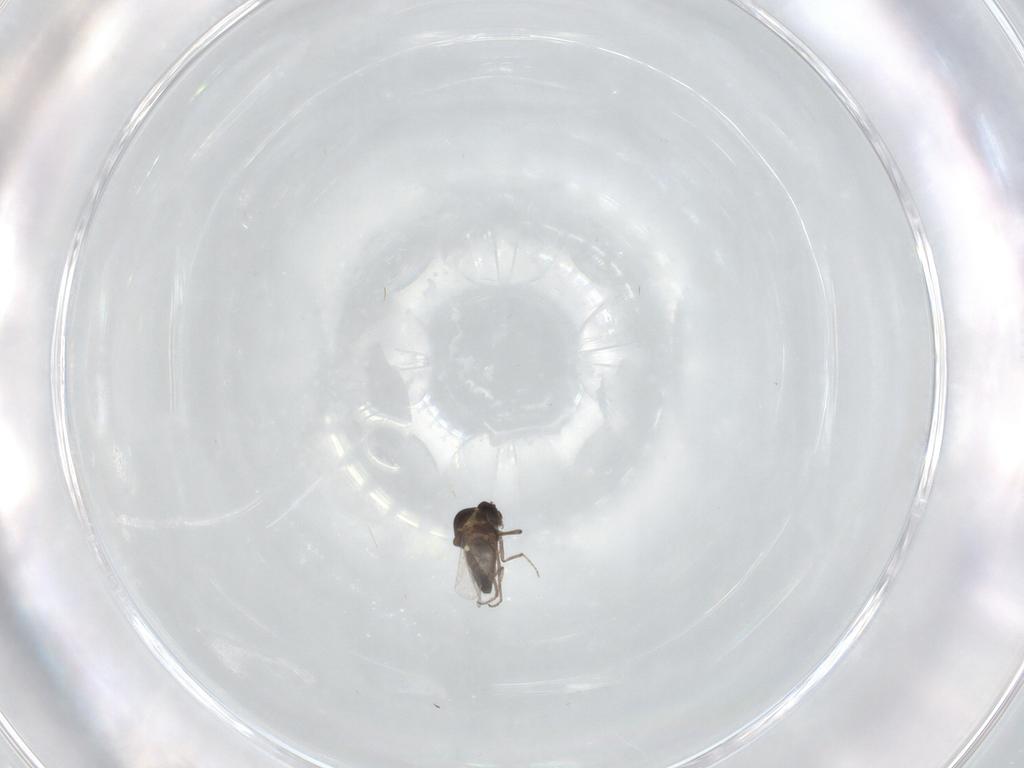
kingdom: Animalia
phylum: Arthropoda
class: Insecta
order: Diptera
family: Ceratopogonidae
